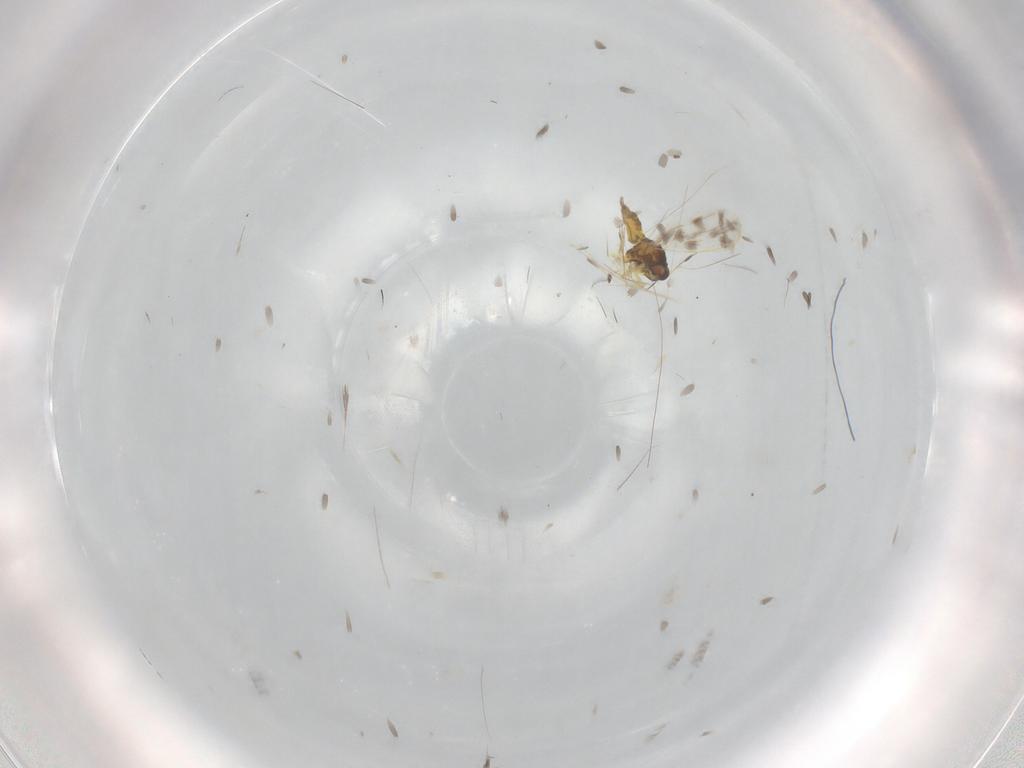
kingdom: Animalia
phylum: Arthropoda
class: Insecta
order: Hemiptera
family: Aleyrodidae
